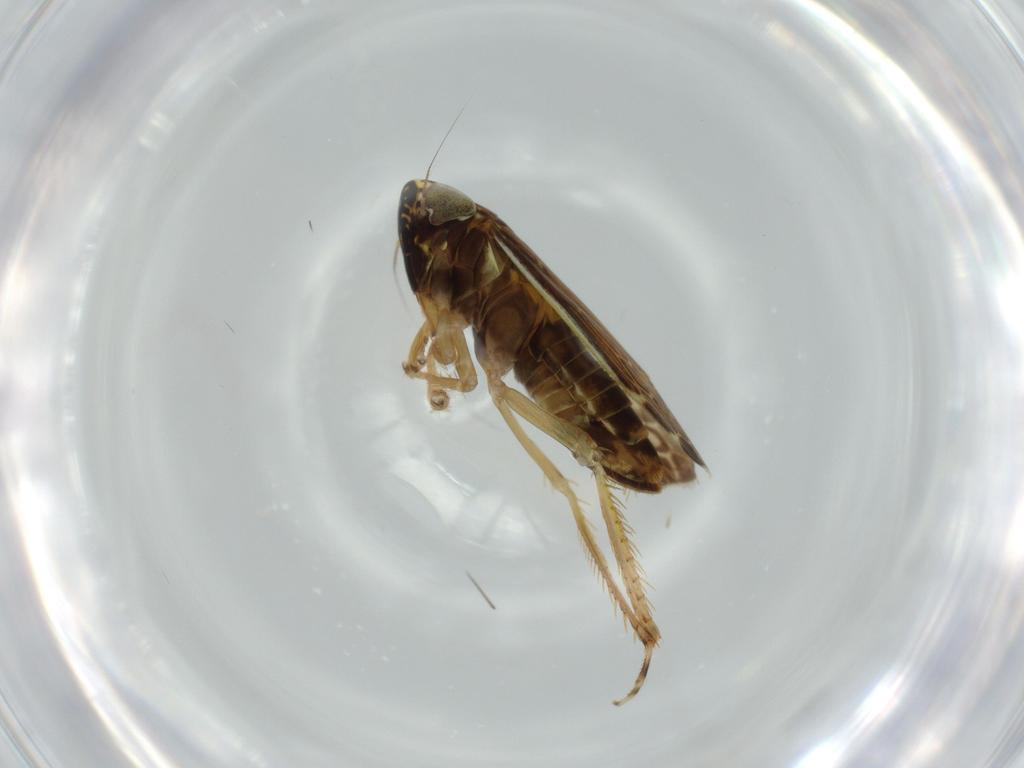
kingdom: Animalia
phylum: Arthropoda
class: Insecta
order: Hemiptera
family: Cicadellidae
